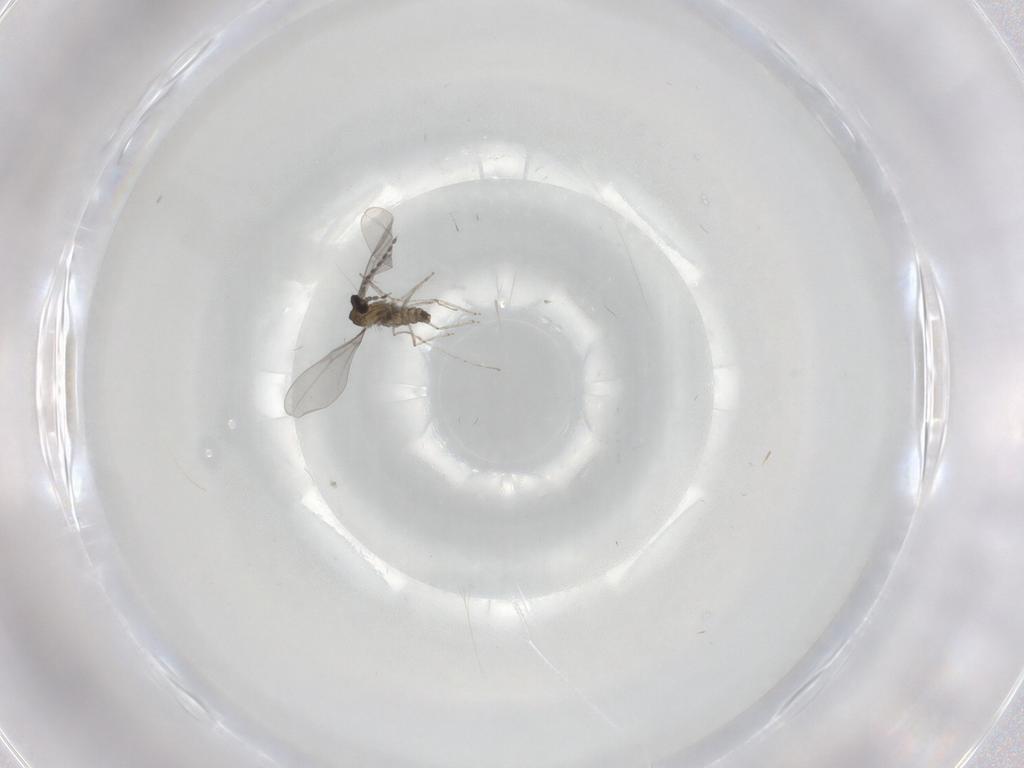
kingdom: Animalia
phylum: Arthropoda
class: Insecta
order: Diptera
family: Cecidomyiidae
